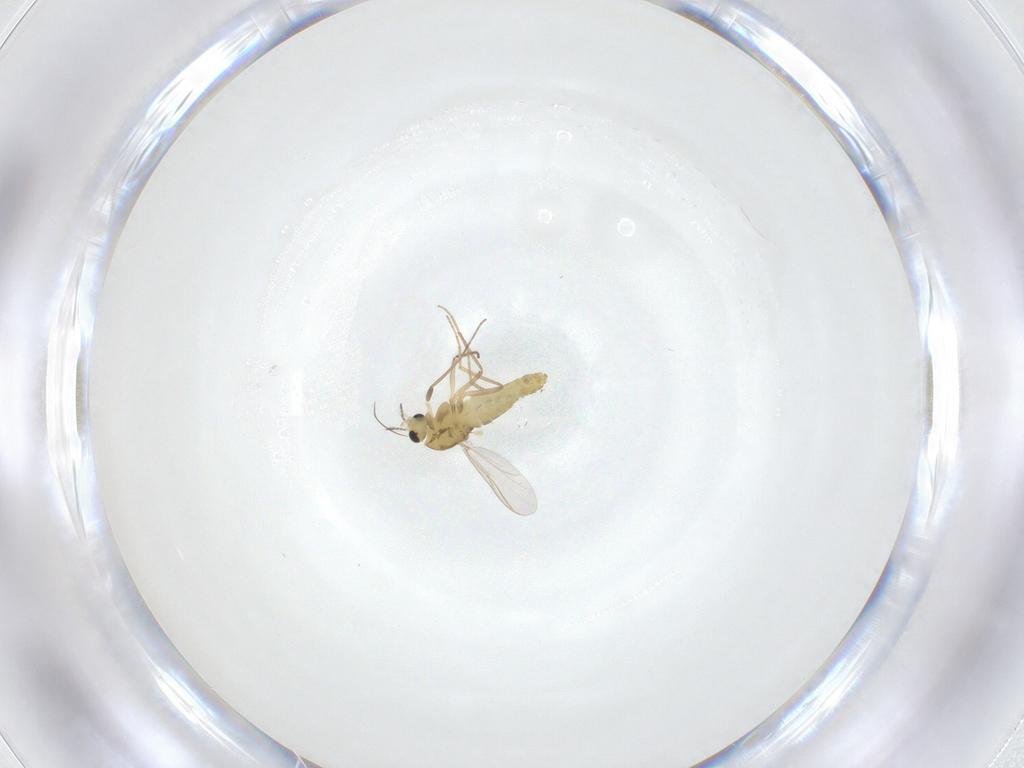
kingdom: Animalia
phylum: Arthropoda
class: Insecta
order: Diptera
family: Chironomidae
